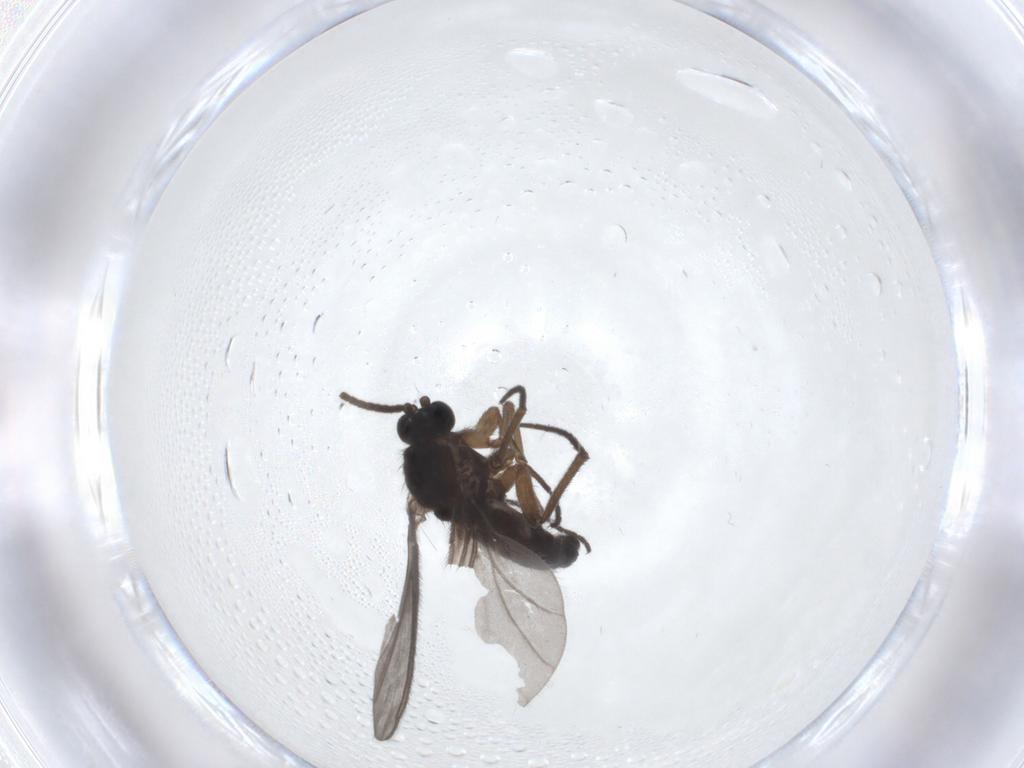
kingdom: Animalia
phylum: Arthropoda
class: Insecta
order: Diptera
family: Sciaridae
